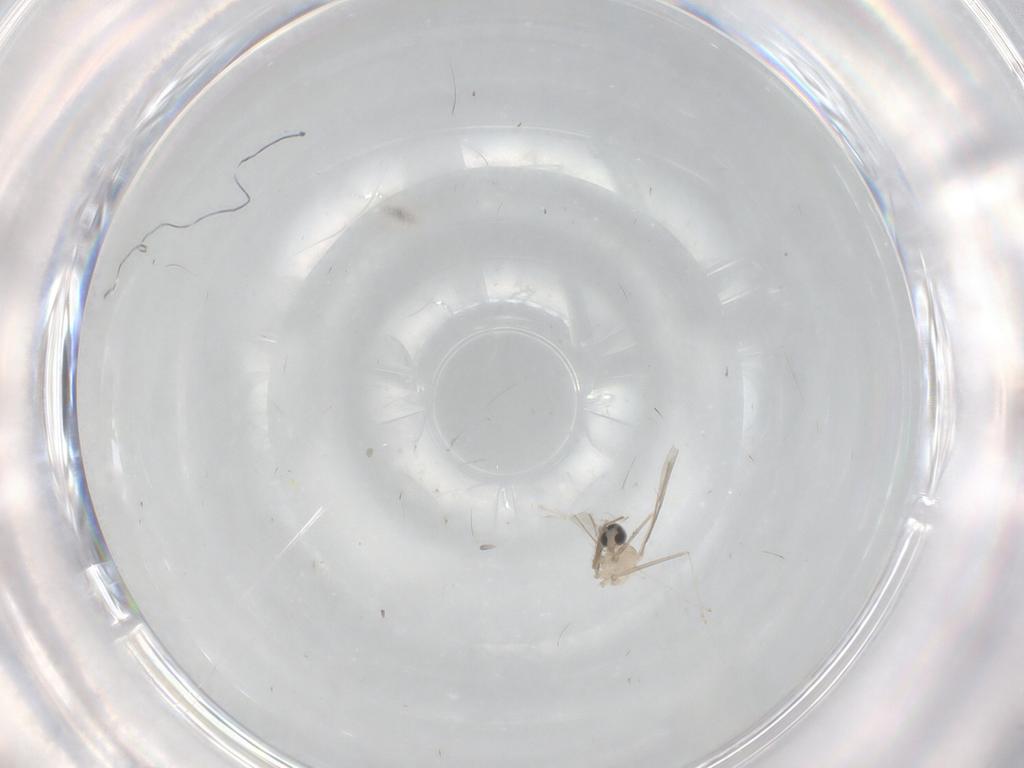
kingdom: Animalia
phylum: Arthropoda
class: Insecta
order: Diptera
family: Cecidomyiidae
